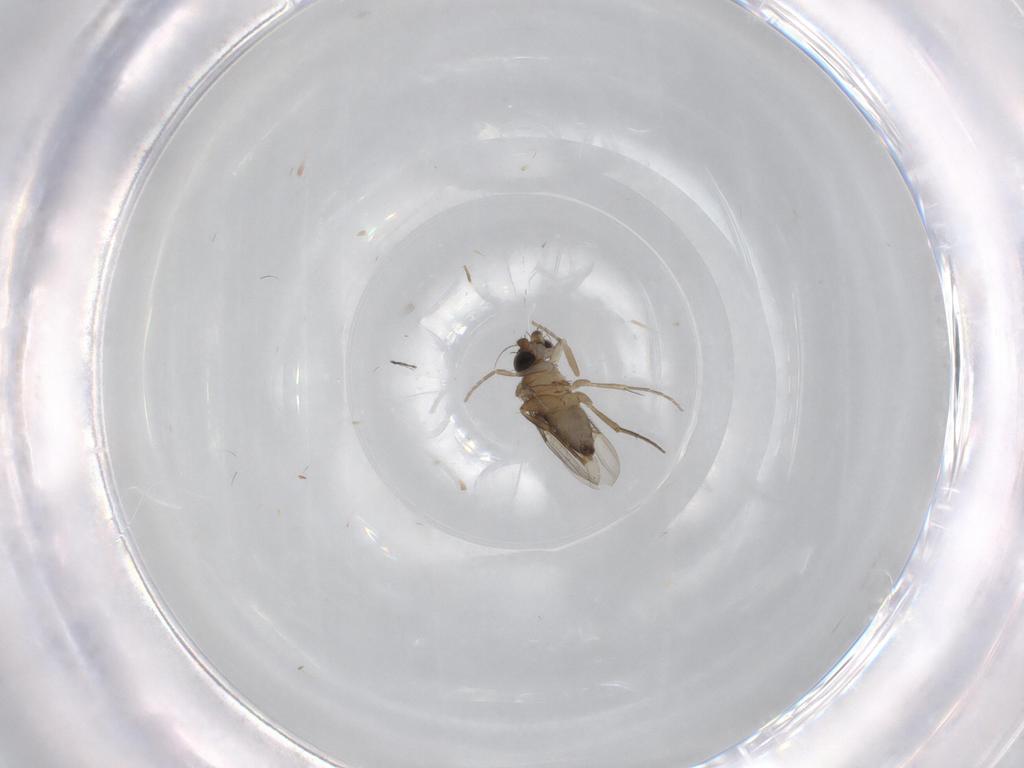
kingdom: Animalia
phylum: Arthropoda
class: Insecta
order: Diptera
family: Phoridae
